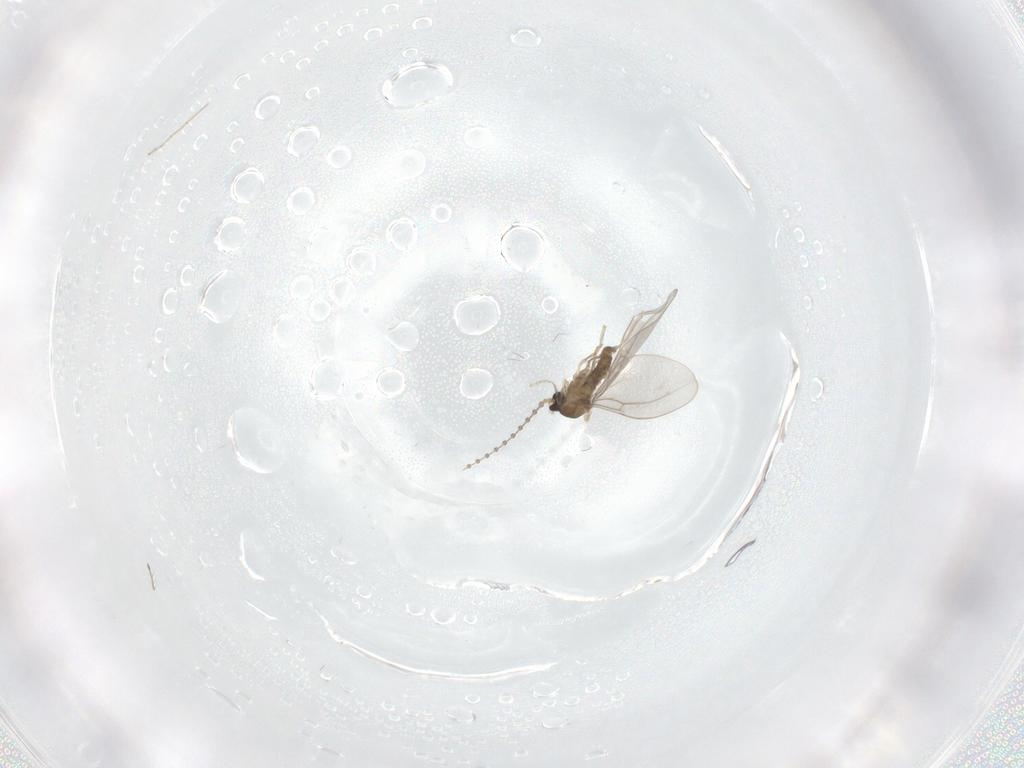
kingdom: Animalia
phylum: Arthropoda
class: Insecta
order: Diptera
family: Cecidomyiidae
